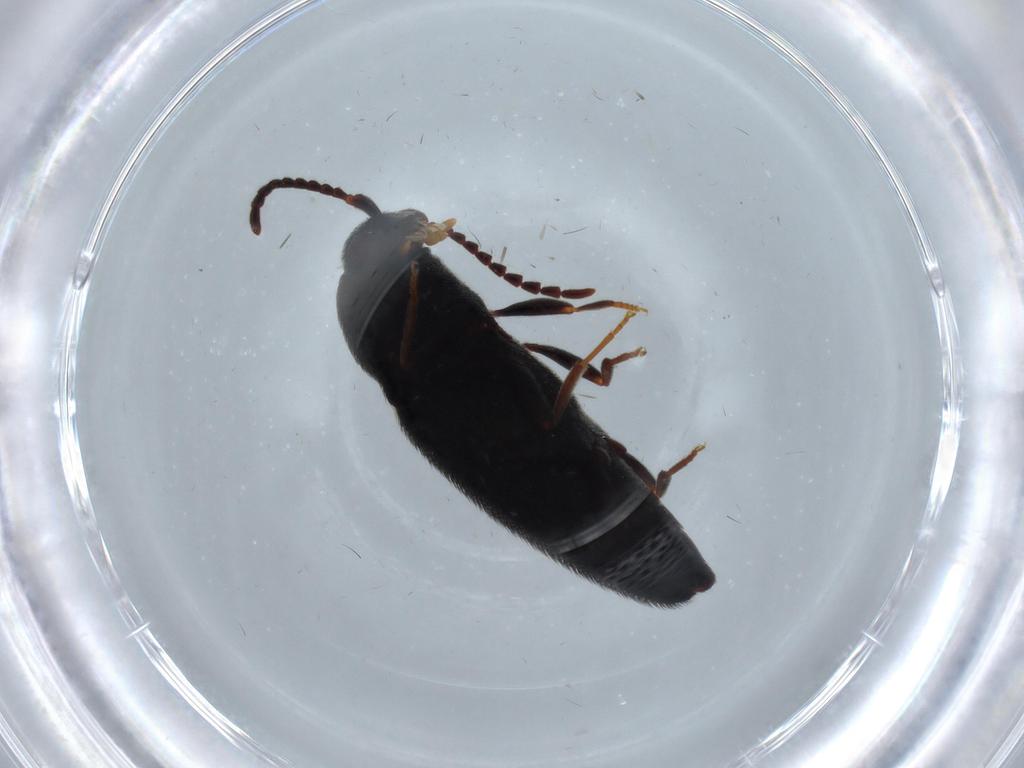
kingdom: Animalia
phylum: Arthropoda
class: Insecta
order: Coleoptera
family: Eucnemidae
